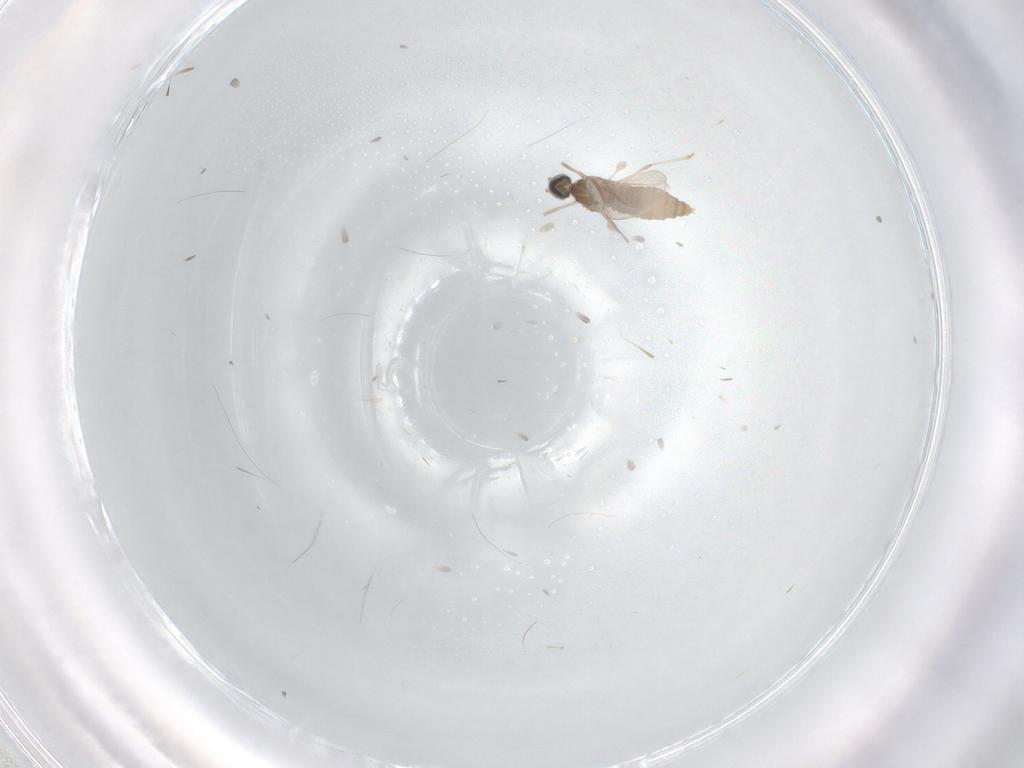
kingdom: Animalia
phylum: Arthropoda
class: Insecta
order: Diptera
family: Cecidomyiidae
